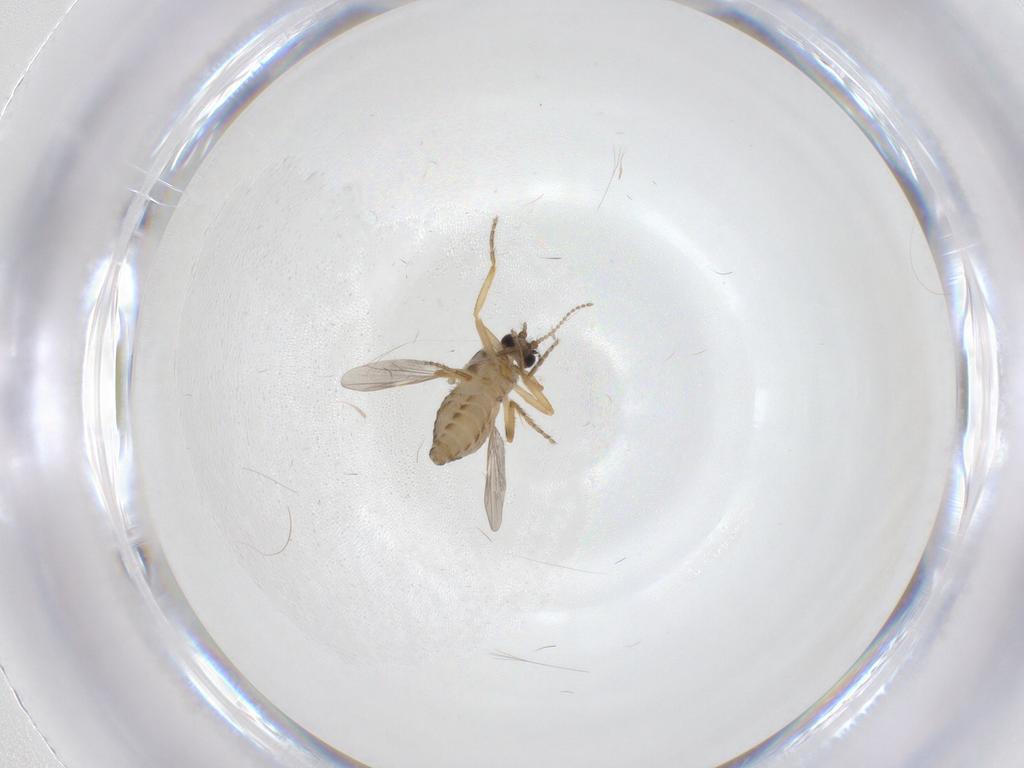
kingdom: Animalia
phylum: Arthropoda
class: Insecta
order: Diptera
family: Ceratopogonidae
